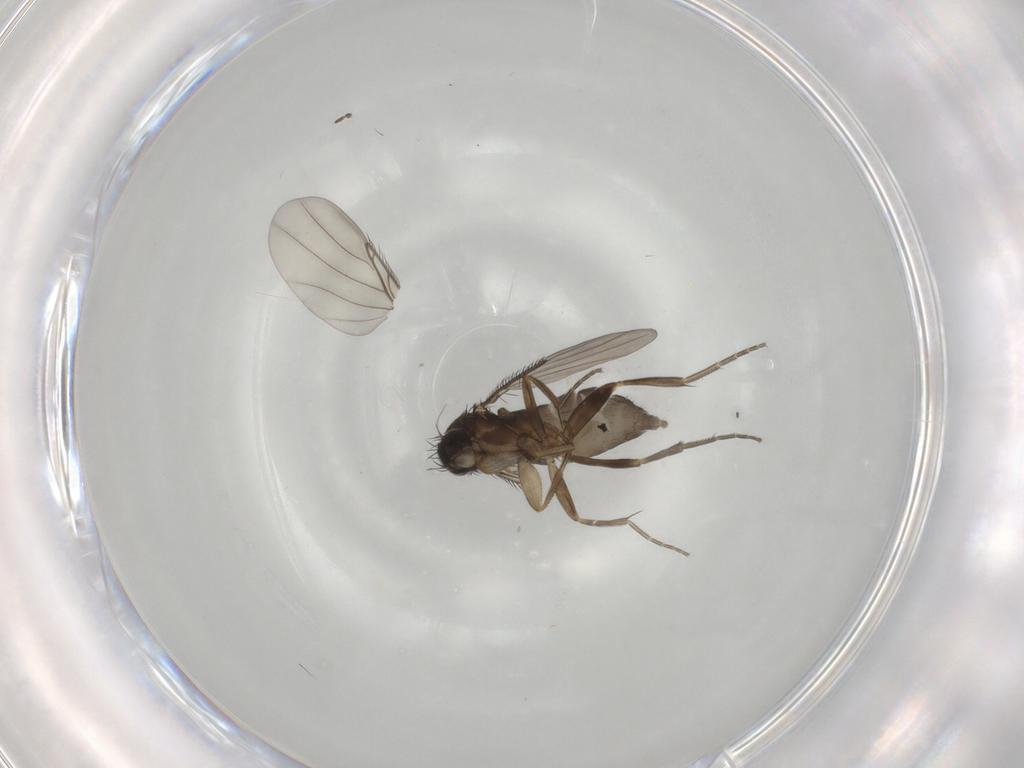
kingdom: Animalia
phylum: Arthropoda
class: Insecta
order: Diptera
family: Phoridae
